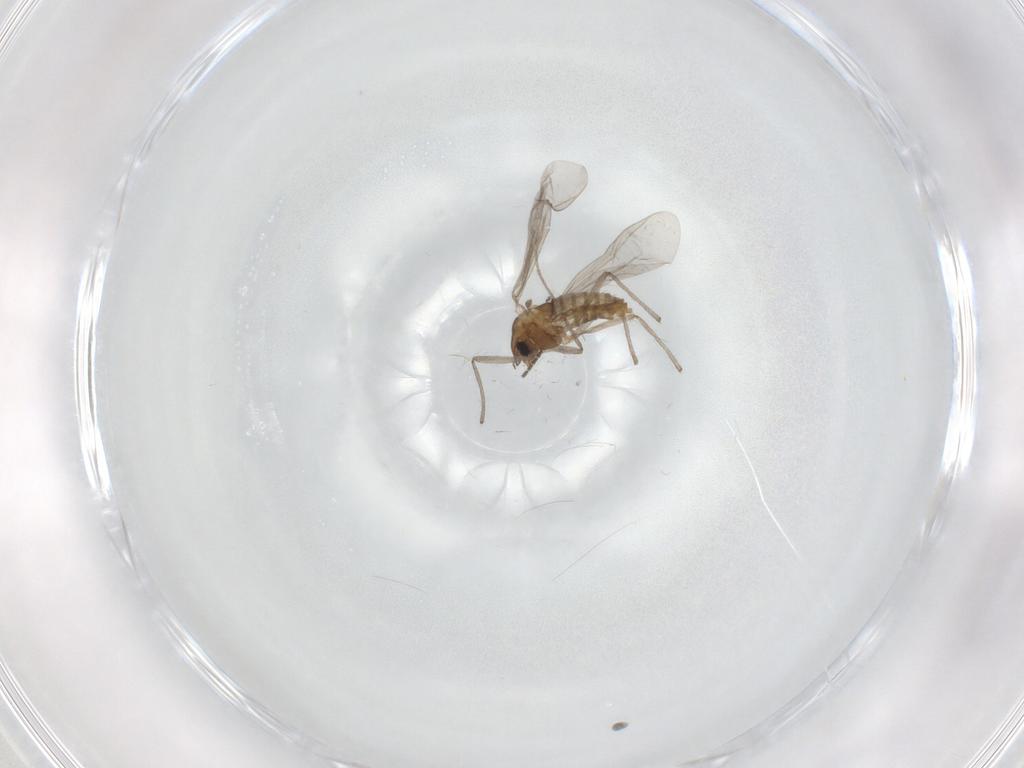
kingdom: Animalia
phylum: Arthropoda
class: Insecta
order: Diptera
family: Chironomidae
